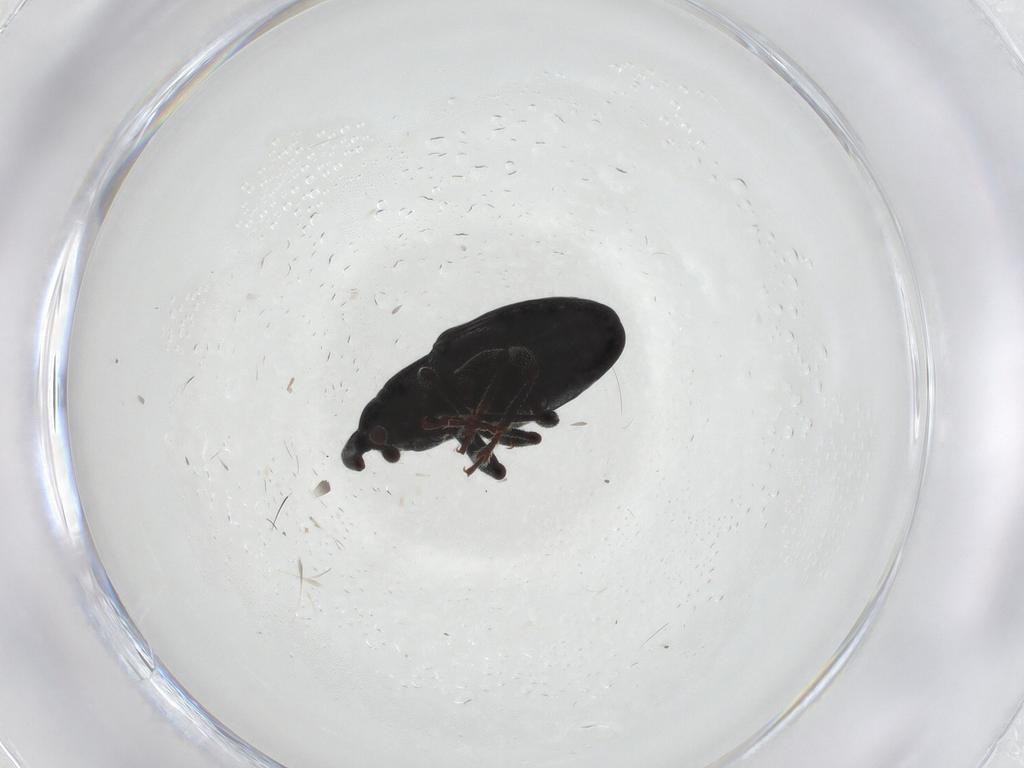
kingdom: Animalia
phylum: Arthropoda
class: Insecta
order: Coleoptera
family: Curculionidae
